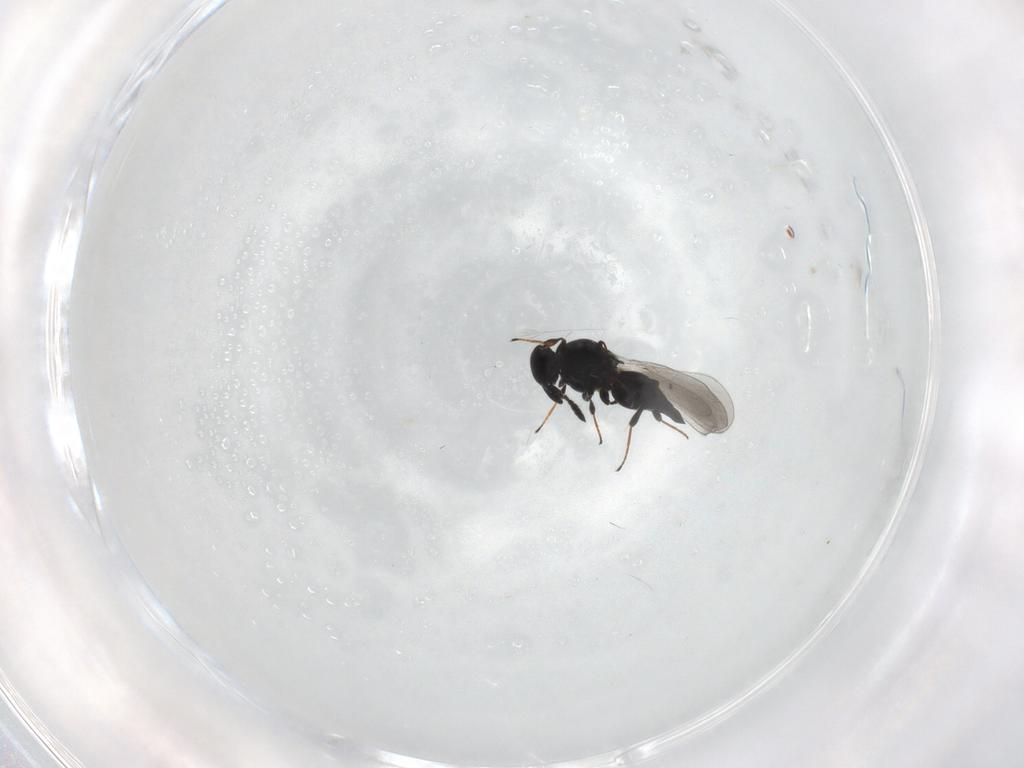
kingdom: Animalia
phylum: Arthropoda
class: Insecta
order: Hymenoptera
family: Platygastridae
